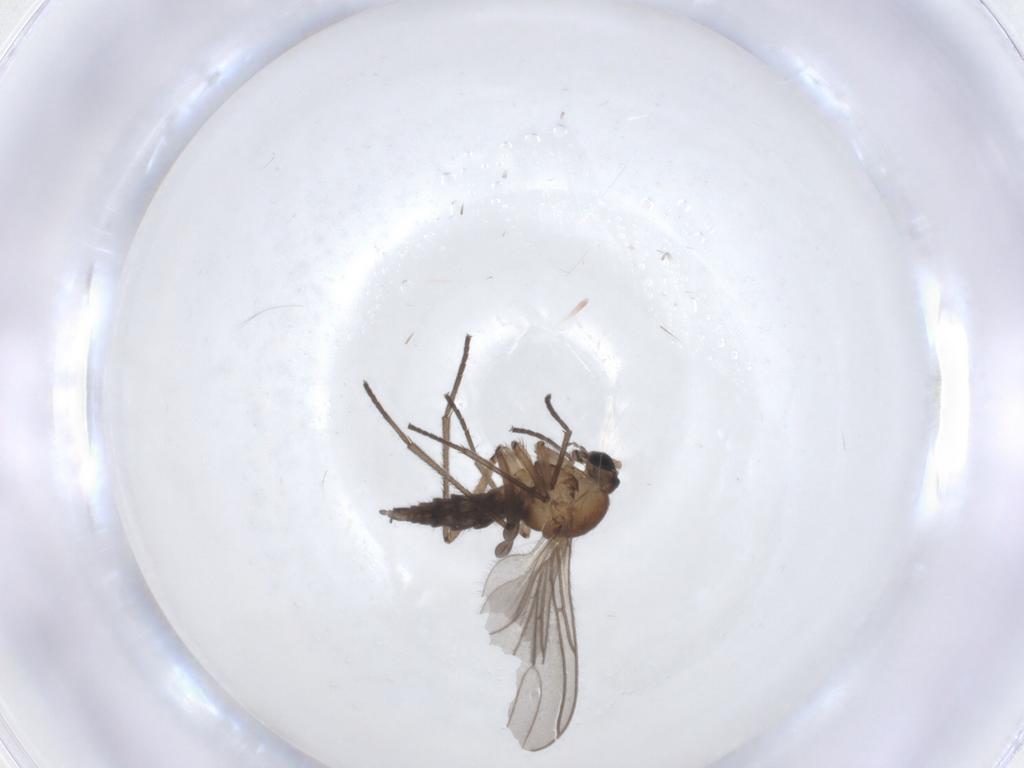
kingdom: Animalia
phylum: Arthropoda
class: Insecta
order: Diptera
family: Sciaridae
